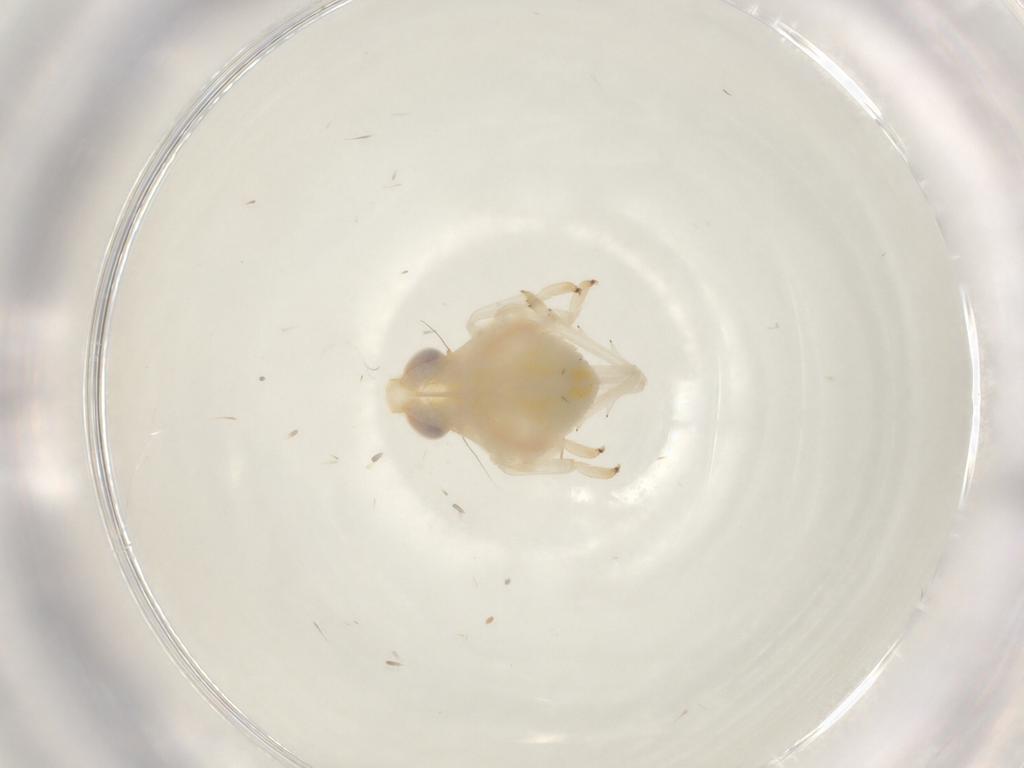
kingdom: Animalia
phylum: Arthropoda
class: Insecta
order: Hemiptera
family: Nogodinidae
